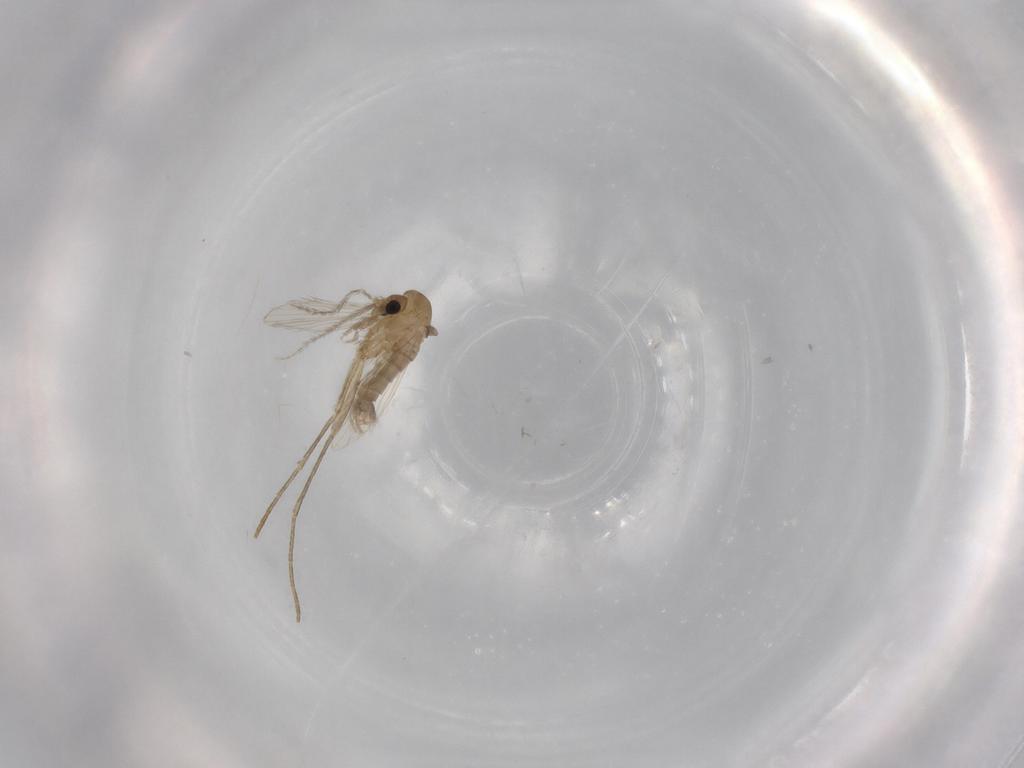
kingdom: Animalia
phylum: Arthropoda
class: Insecta
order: Diptera
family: Psychodidae
